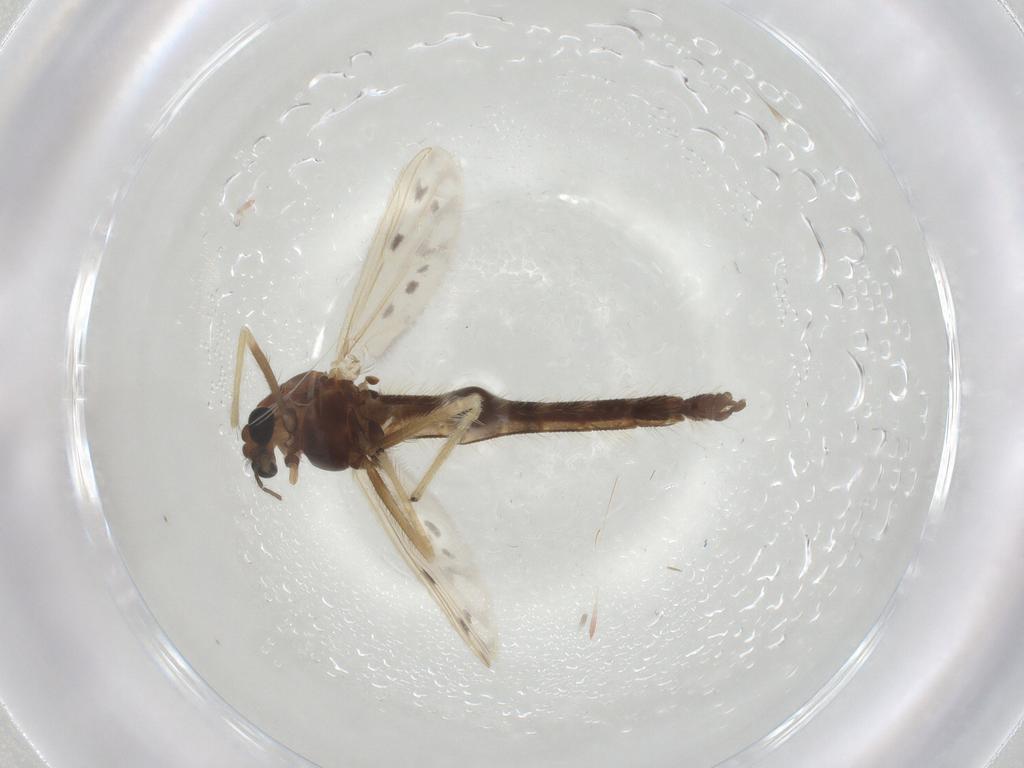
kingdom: Animalia
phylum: Arthropoda
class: Insecta
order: Diptera
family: Chironomidae
